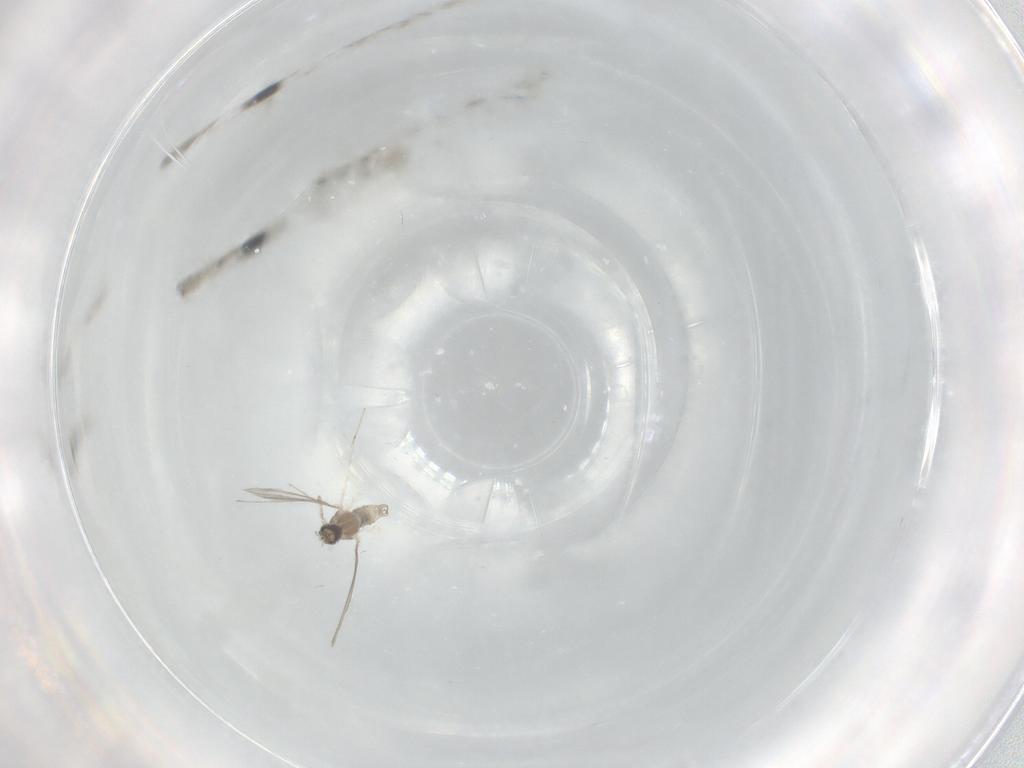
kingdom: Animalia
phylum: Arthropoda
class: Insecta
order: Diptera
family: Cecidomyiidae
